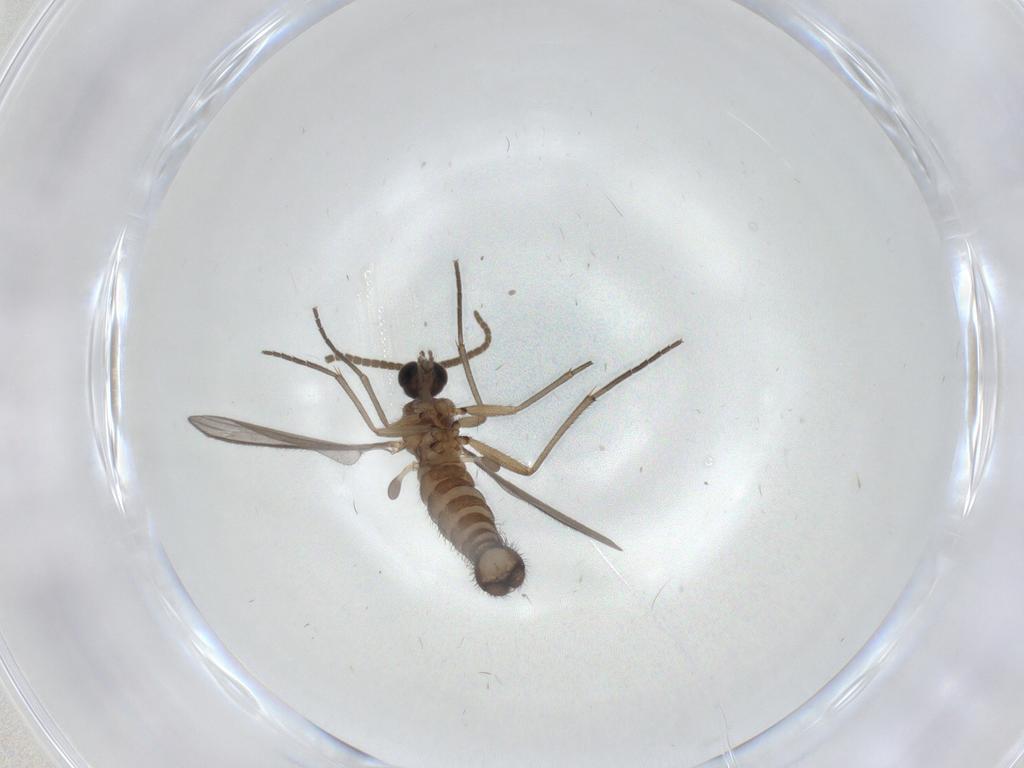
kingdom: Animalia
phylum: Arthropoda
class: Insecta
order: Diptera
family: Sciaridae
